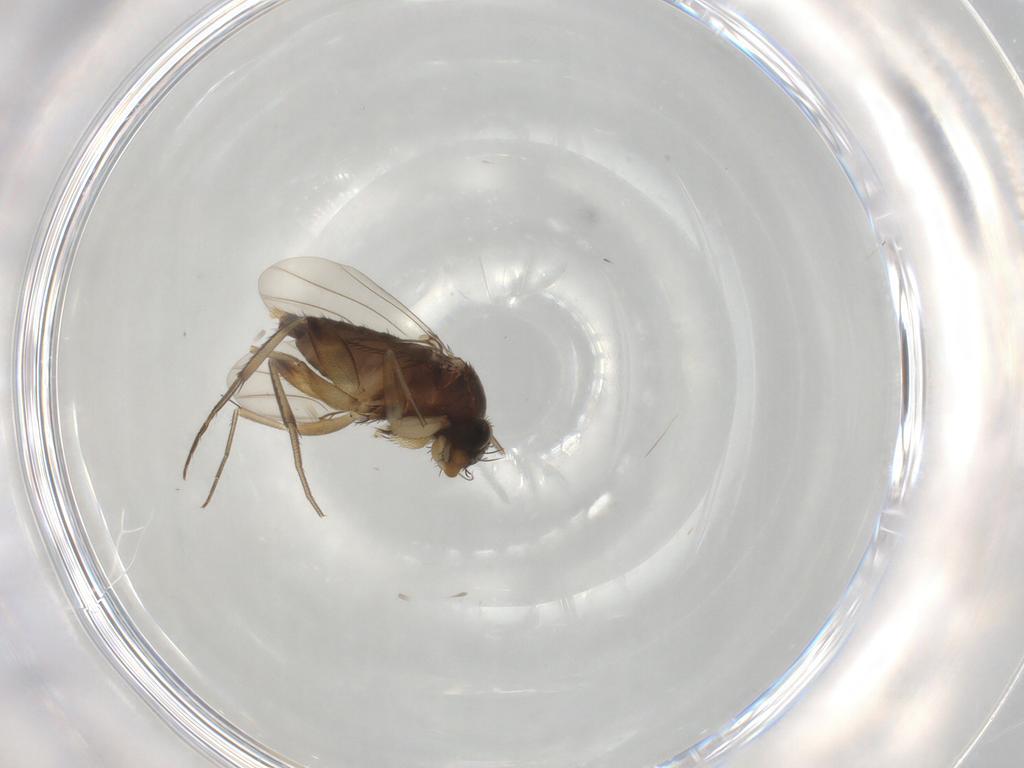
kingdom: Animalia
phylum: Arthropoda
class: Insecta
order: Diptera
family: Phoridae
